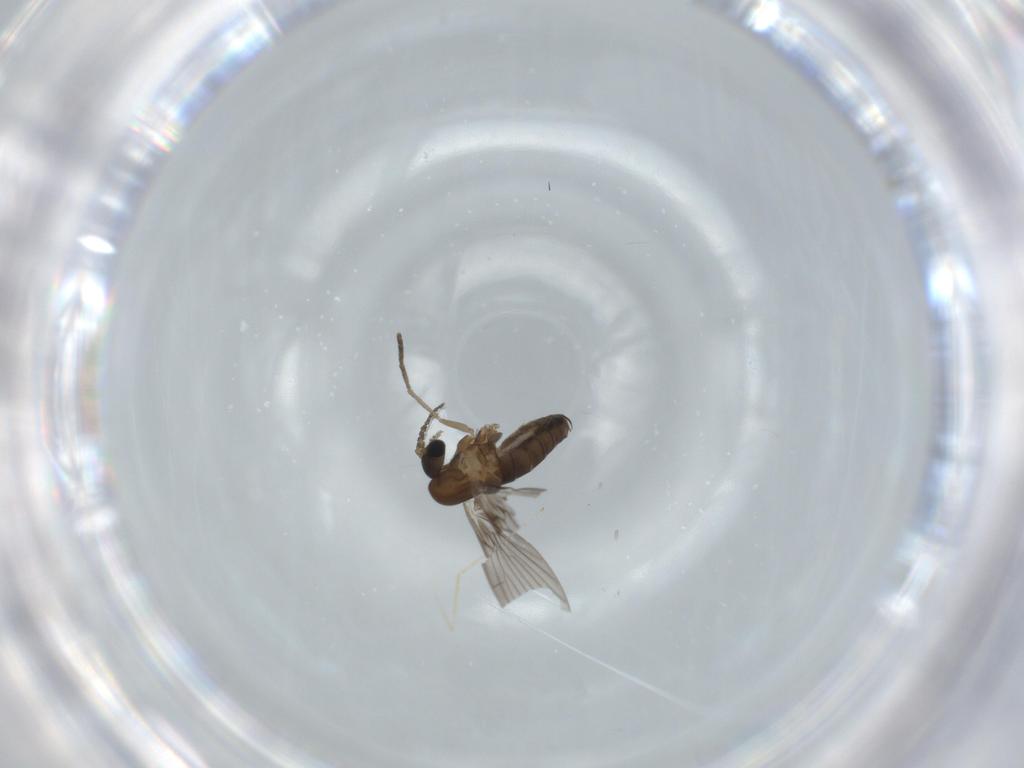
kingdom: Animalia
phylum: Arthropoda
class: Insecta
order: Diptera
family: Psychodidae
